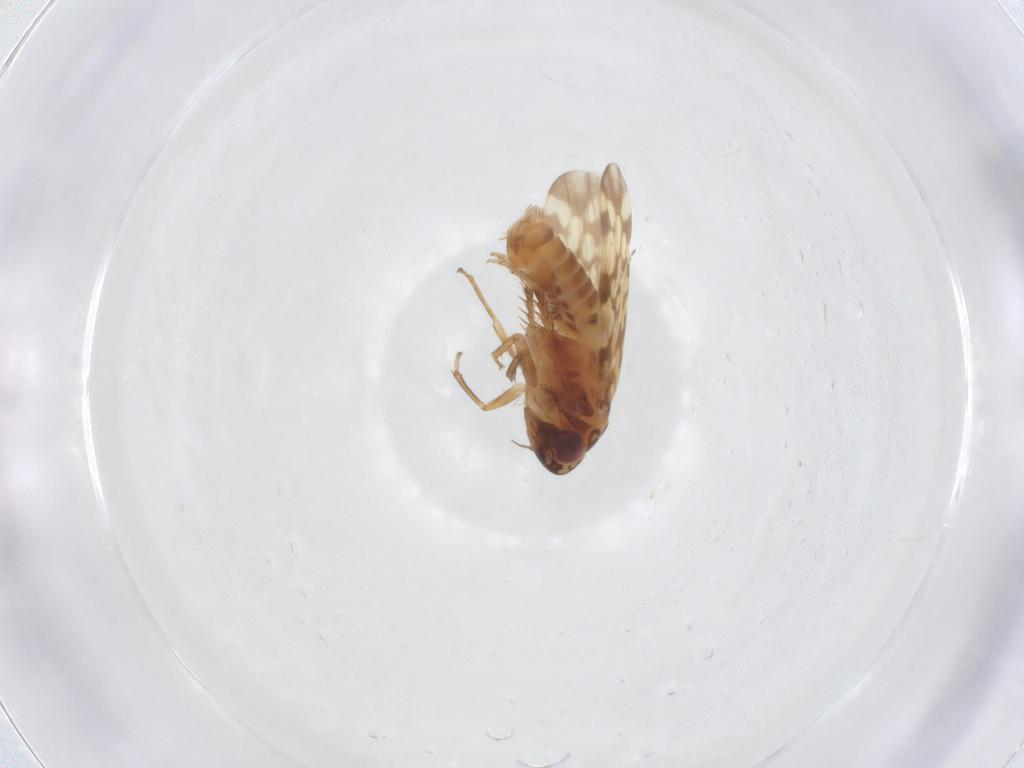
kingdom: Animalia
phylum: Arthropoda
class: Insecta
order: Hemiptera
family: Cicadellidae
